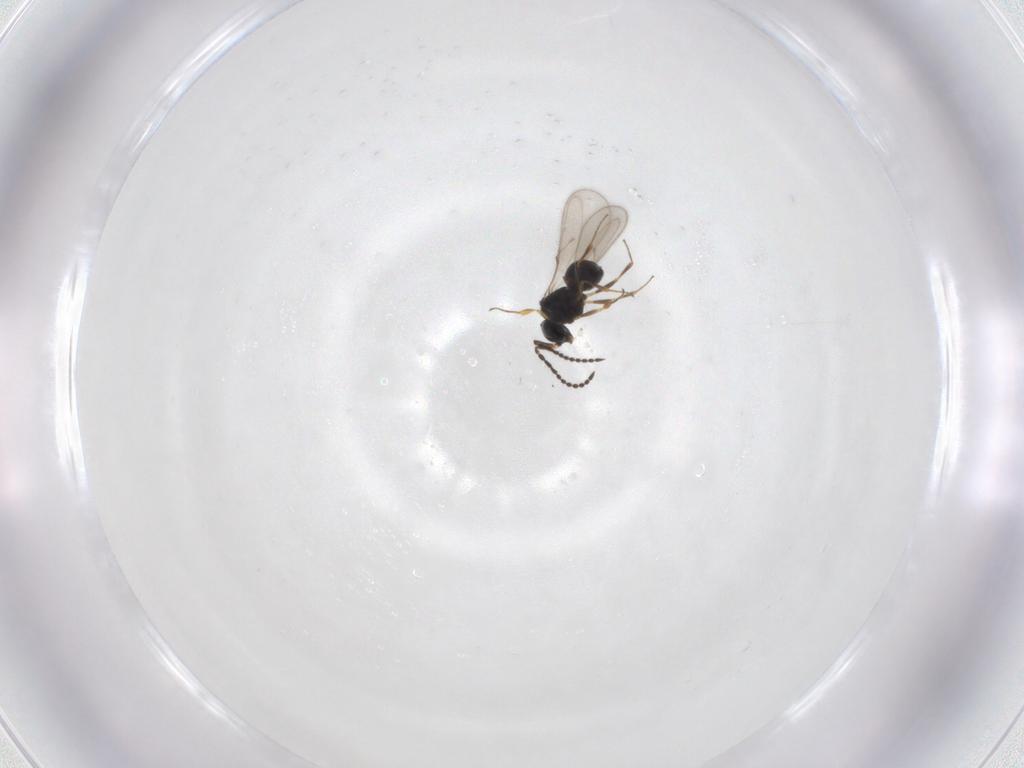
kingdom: Animalia
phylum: Arthropoda
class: Insecta
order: Hymenoptera
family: Scelionidae
